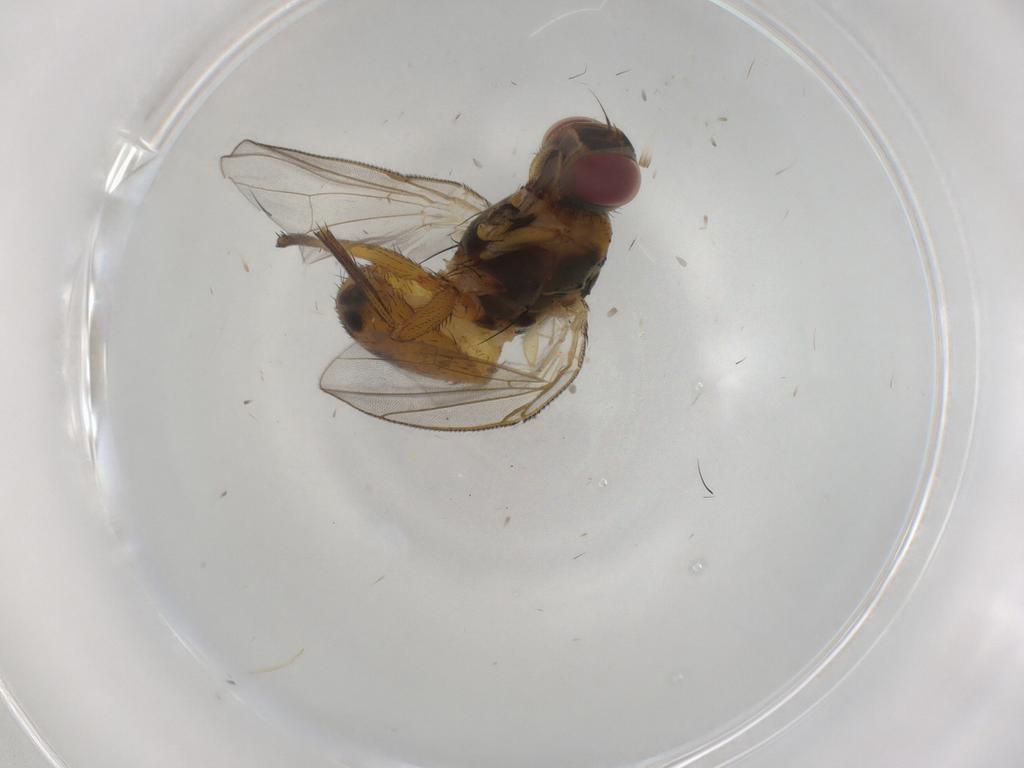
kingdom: Animalia
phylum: Arthropoda
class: Insecta
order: Diptera
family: Muscidae
